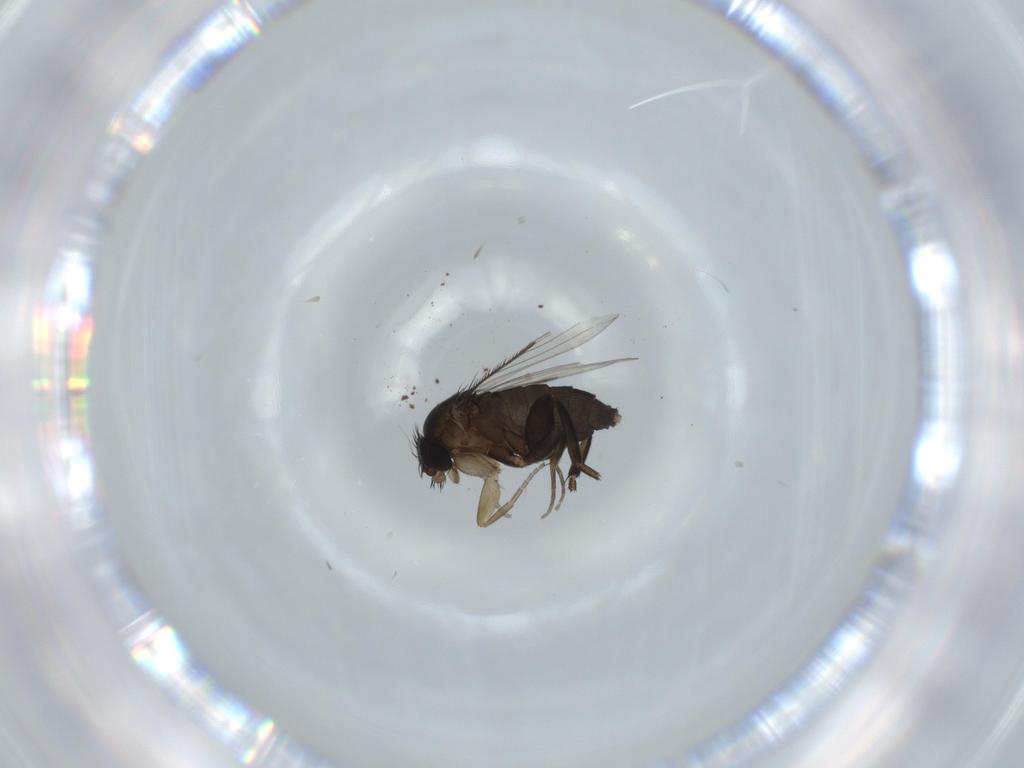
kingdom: Animalia
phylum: Arthropoda
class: Insecta
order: Diptera
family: Phoridae
